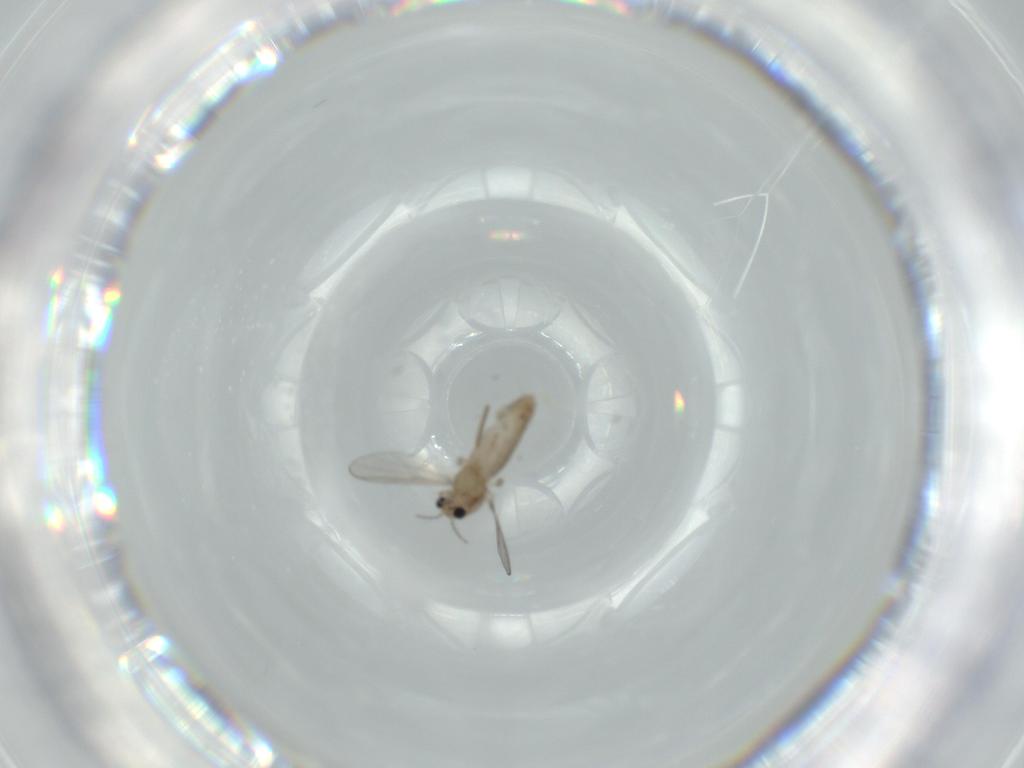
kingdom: Animalia
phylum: Arthropoda
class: Insecta
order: Diptera
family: Chironomidae
